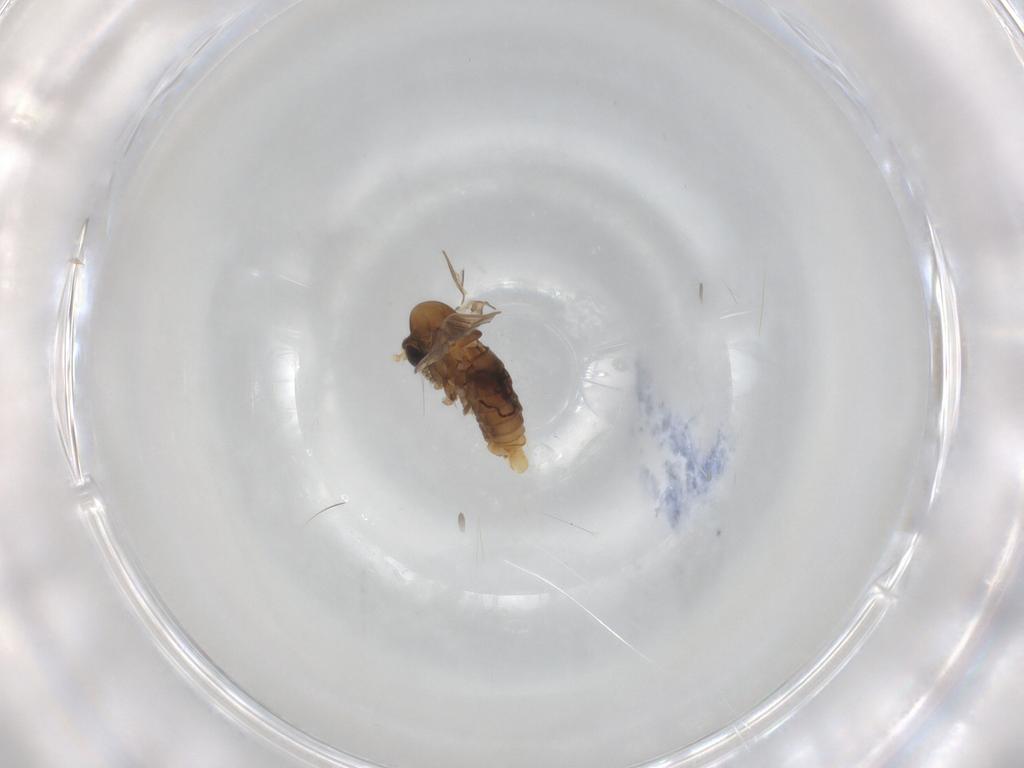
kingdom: Animalia
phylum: Arthropoda
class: Insecta
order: Diptera
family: Psychodidae
